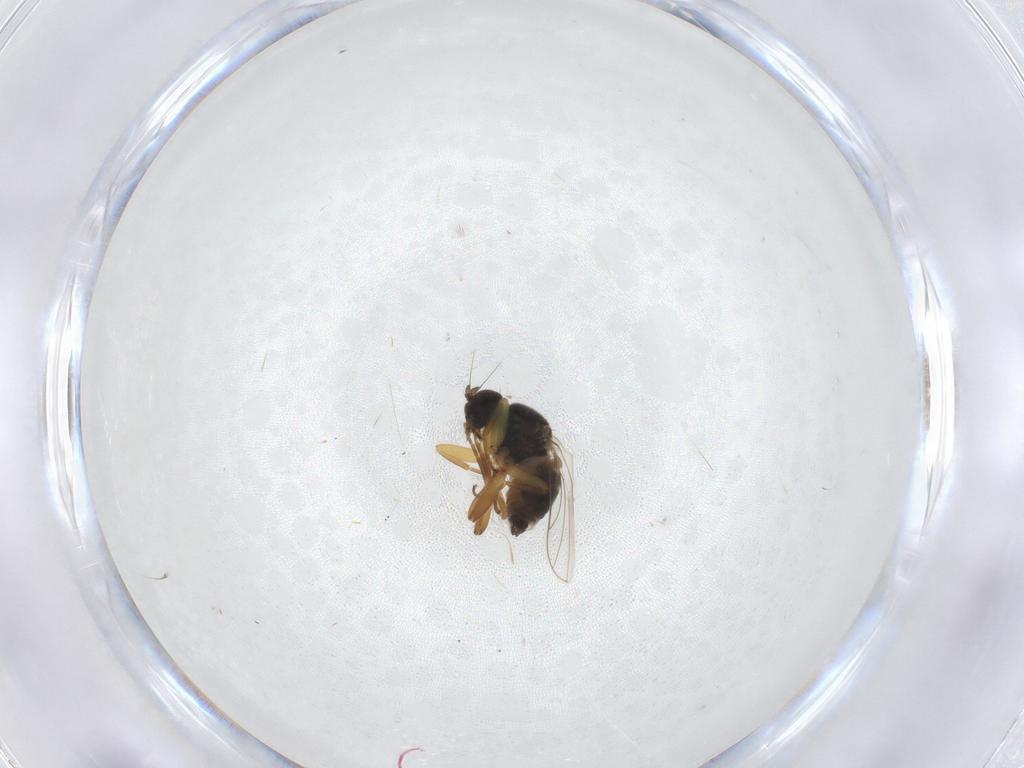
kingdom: Animalia
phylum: Arthropoda
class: Insecta
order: Diptera
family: Hybotidae
